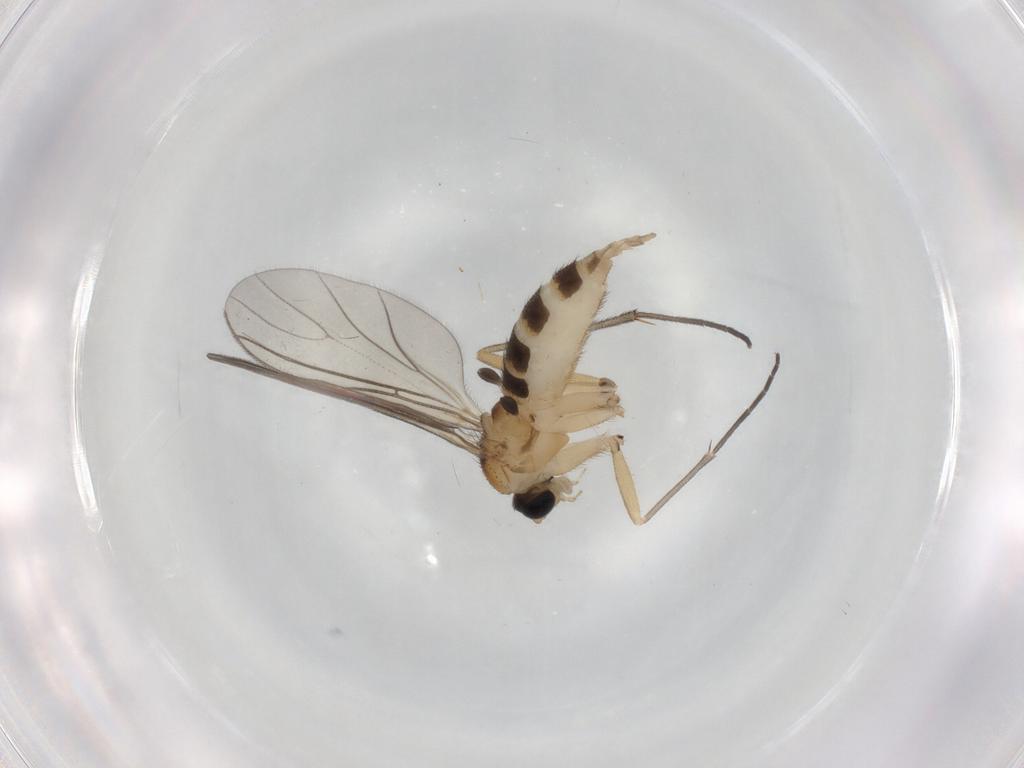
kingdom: Animalia
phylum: Arthropoda
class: Insecta
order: Diptera
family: Sciaridae
